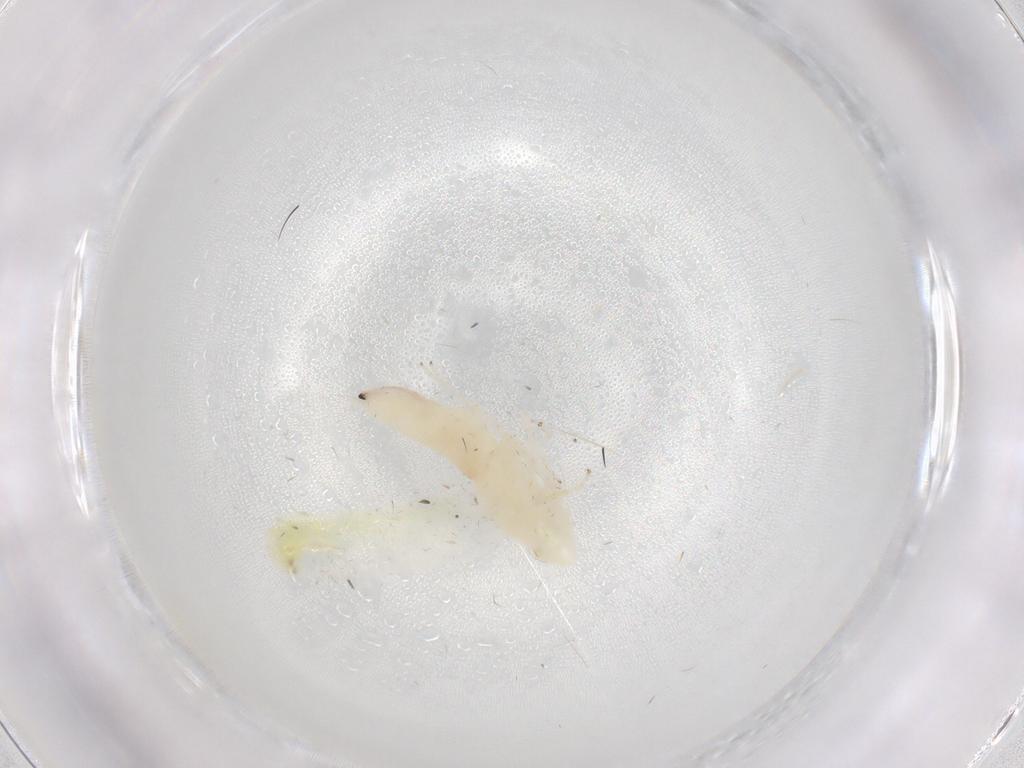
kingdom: Animalia
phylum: Arthropoda
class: Insecta
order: Hemiptera
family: Cicadellidae
